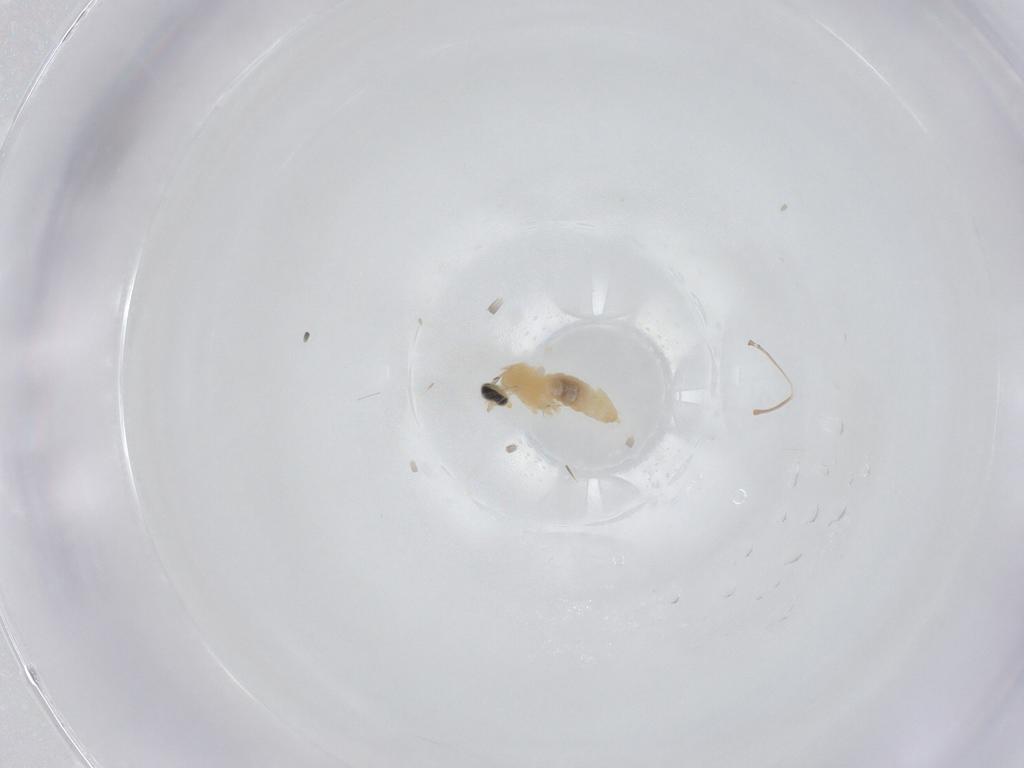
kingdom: Animalia
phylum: Arthropoda
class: Insecta
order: Diptera
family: Cecidomyiidae
